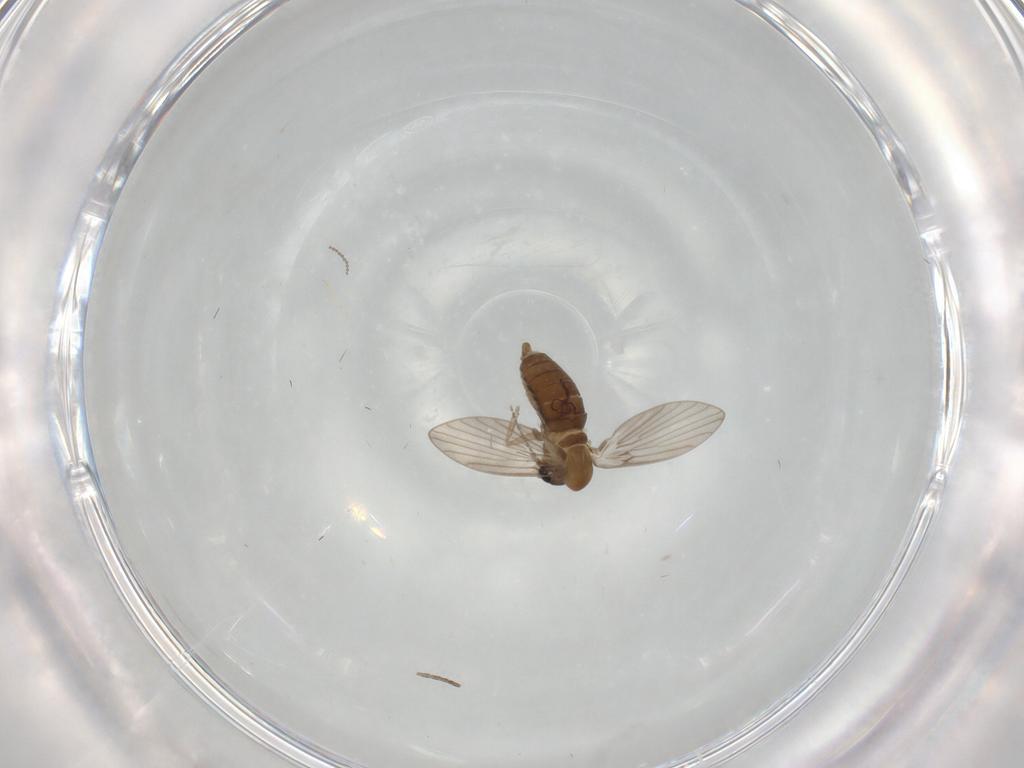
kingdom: Animalia
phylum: Arthropoda
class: Insecta
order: Diptera
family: Cecidomyiidae
